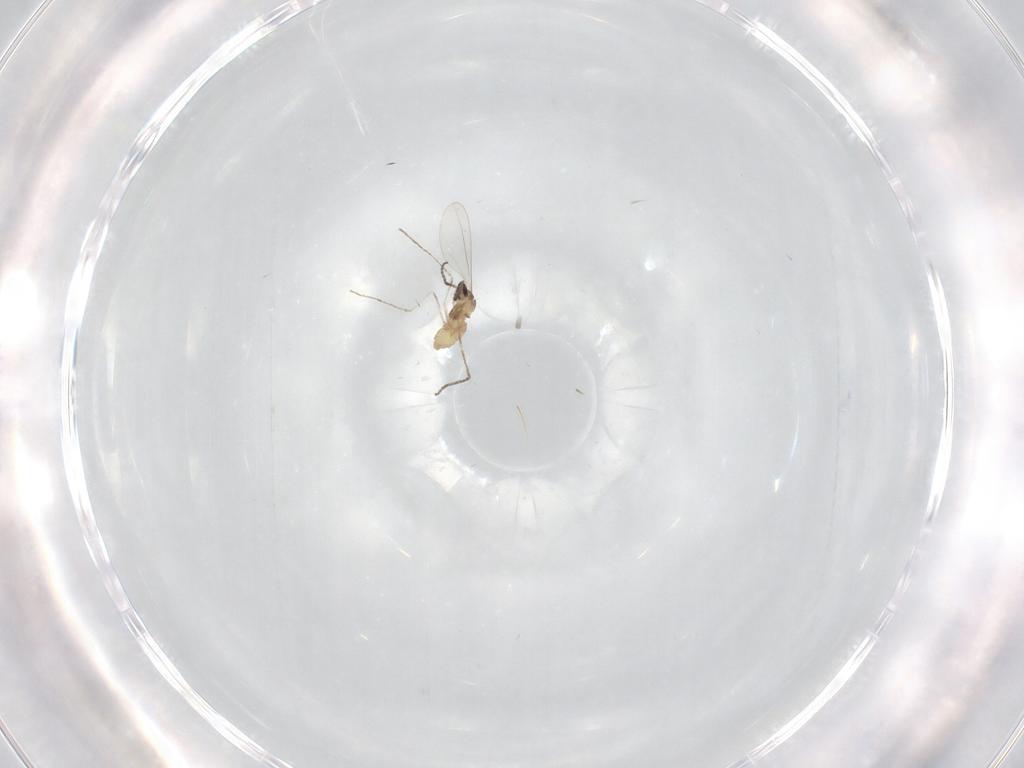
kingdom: Animalia
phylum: Arthropoda
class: Insecta
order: Diptera
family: Cecidomyiidae
